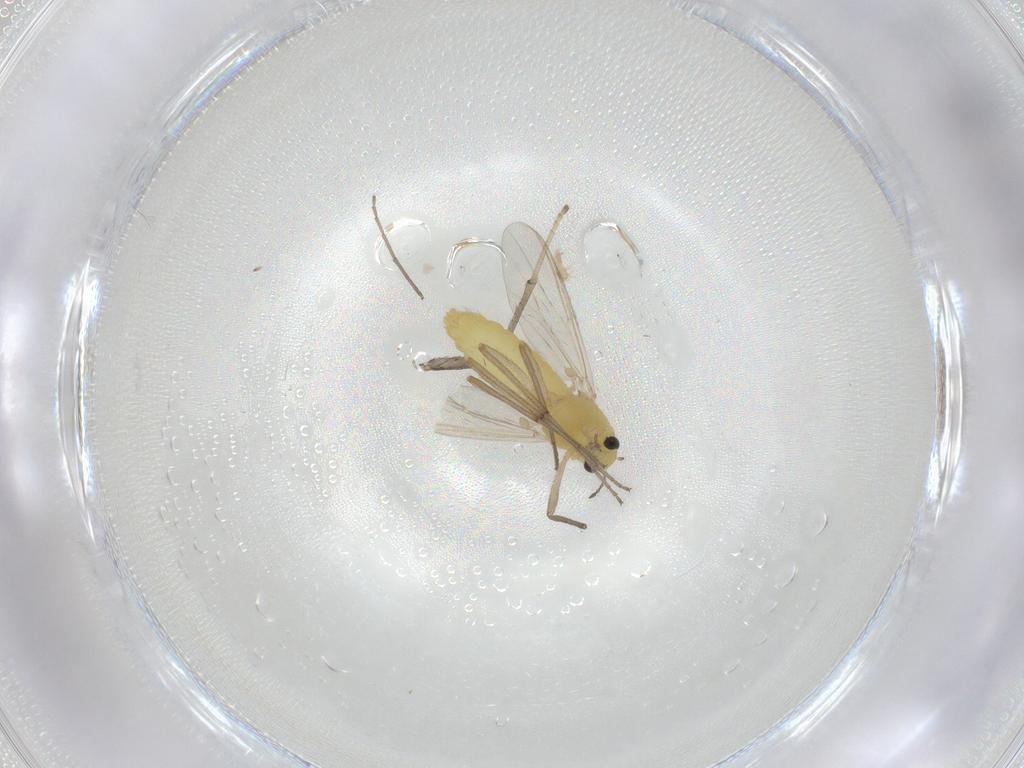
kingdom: Animalia
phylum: Arthropoda
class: Insecta
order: Diptera
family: Chironomidae
